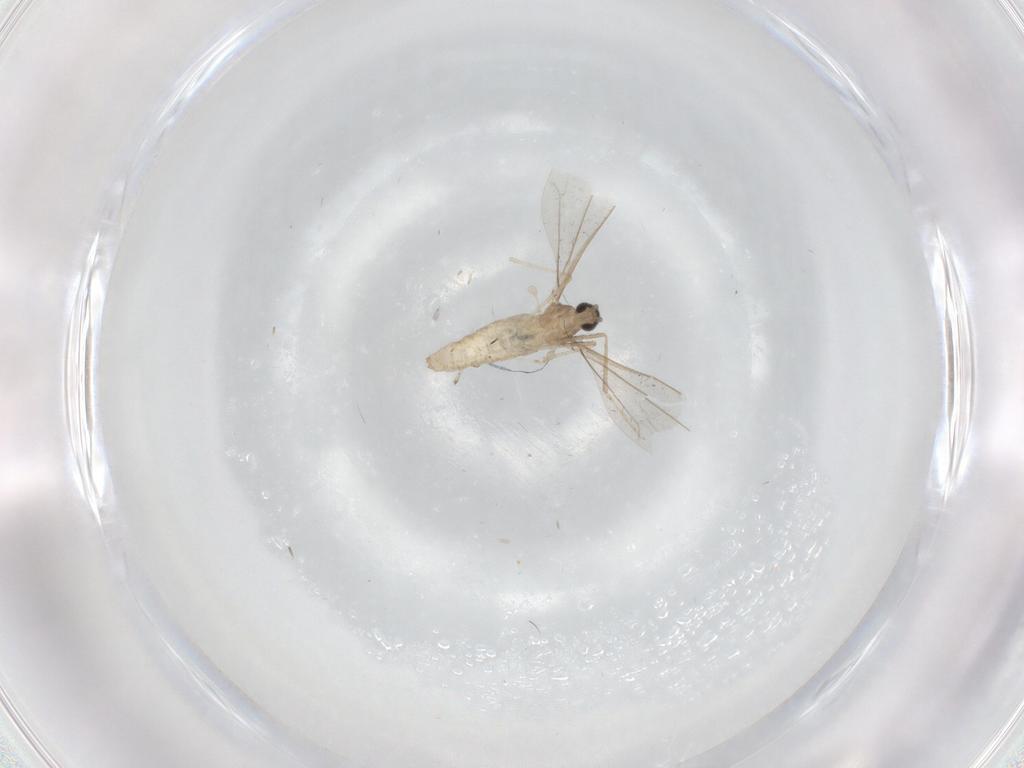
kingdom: Animalia
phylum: Arthropoda
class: Insecta
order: Diptera
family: Cecidomyiidae
